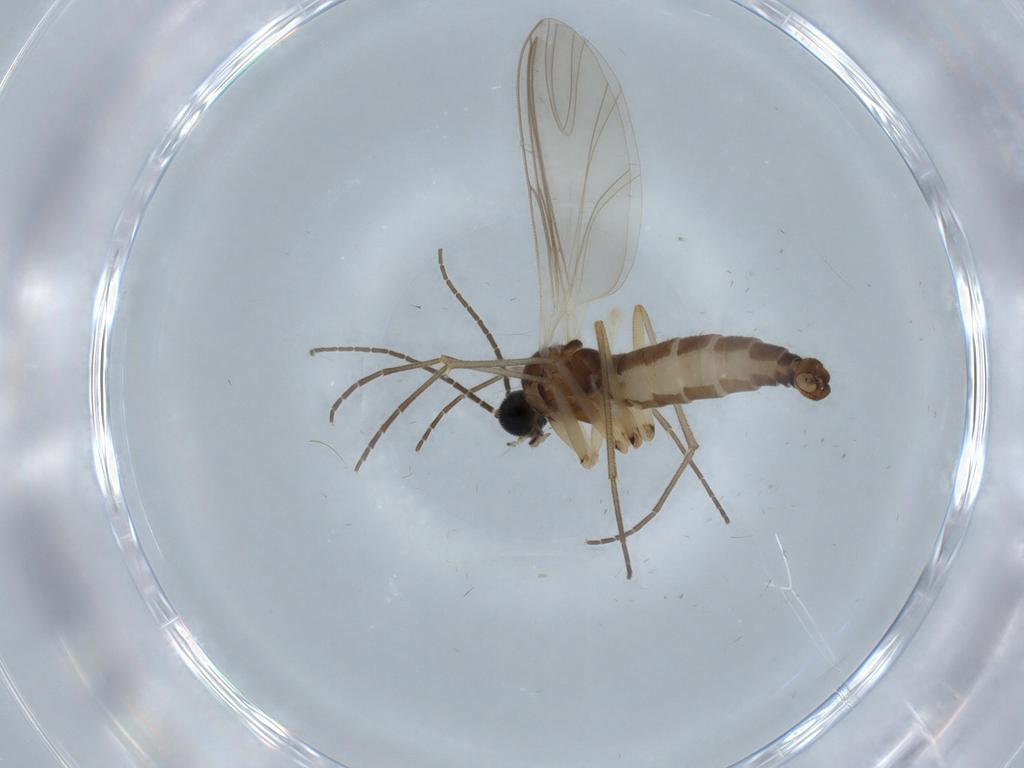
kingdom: Animalia
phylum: Arthropoda
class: Insecta
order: Diptera
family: Sciaridae
